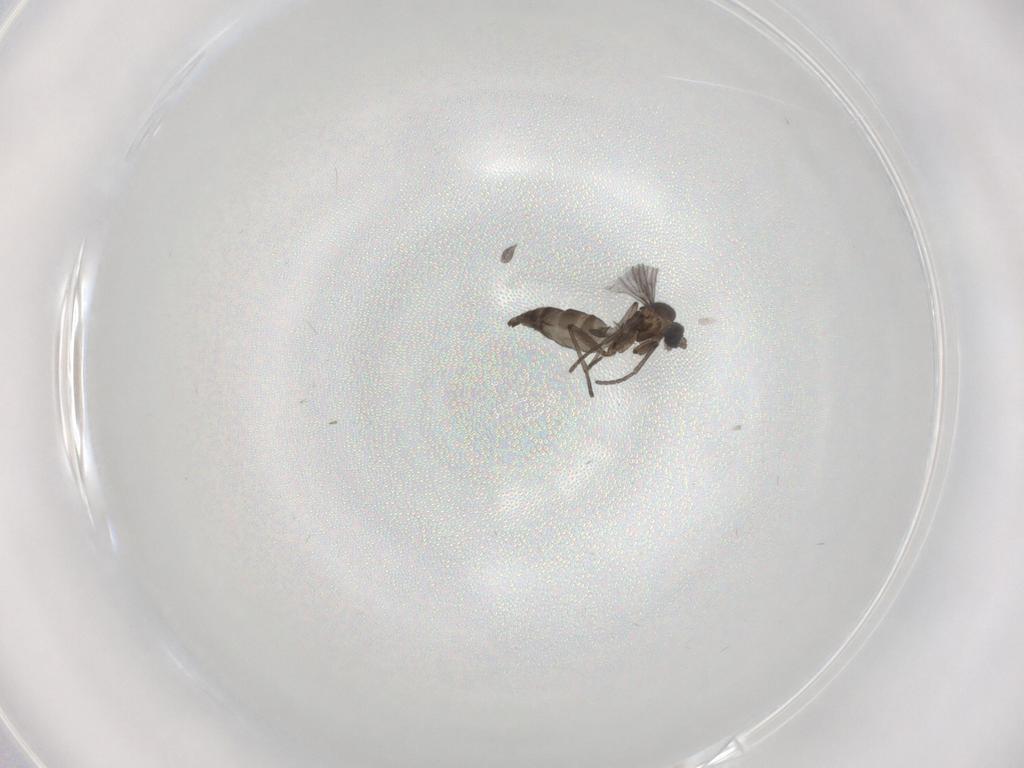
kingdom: Animalia
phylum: Arthropoda
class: Insecta
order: Diptera
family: Sciaridae
